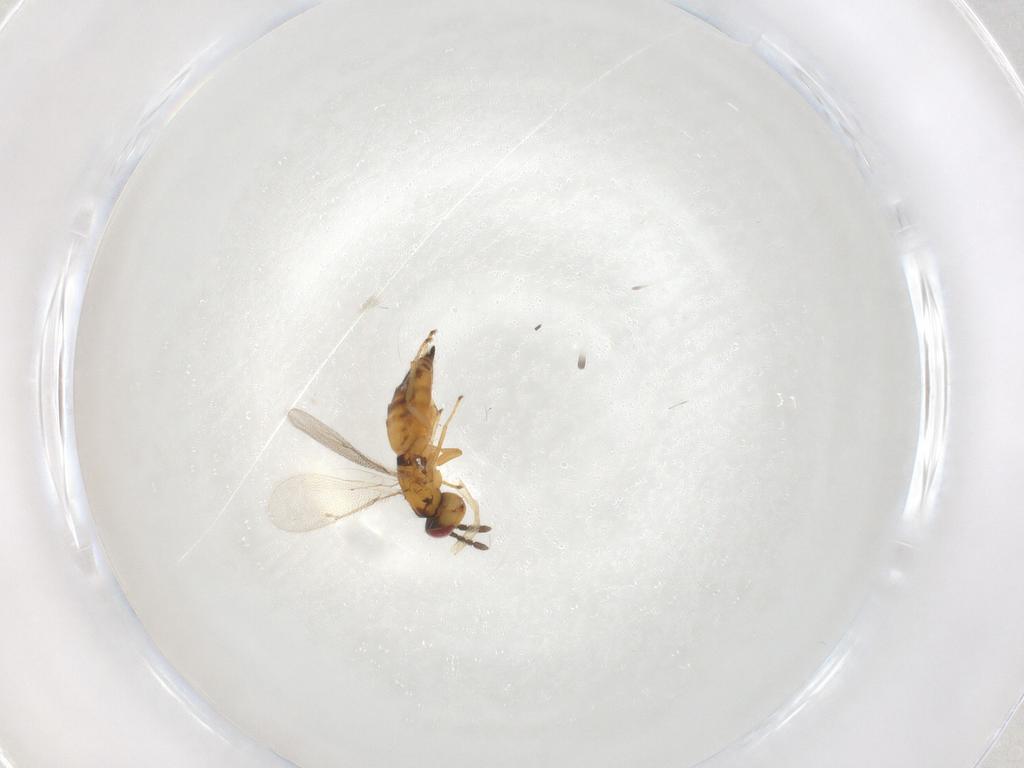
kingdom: Animalia
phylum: Arthropoda
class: Insecta
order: Hymenoptera
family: Eulophidae
